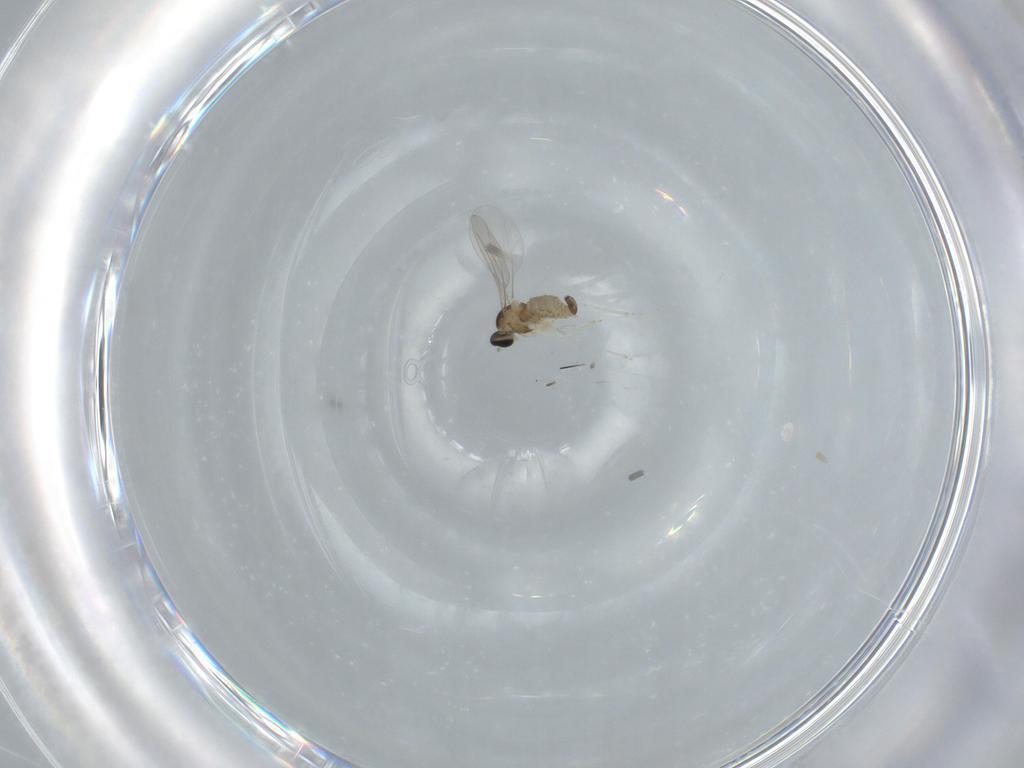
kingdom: Animalia
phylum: Arthropoda
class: Insecta
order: Diptera
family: Cecidomyiidae
